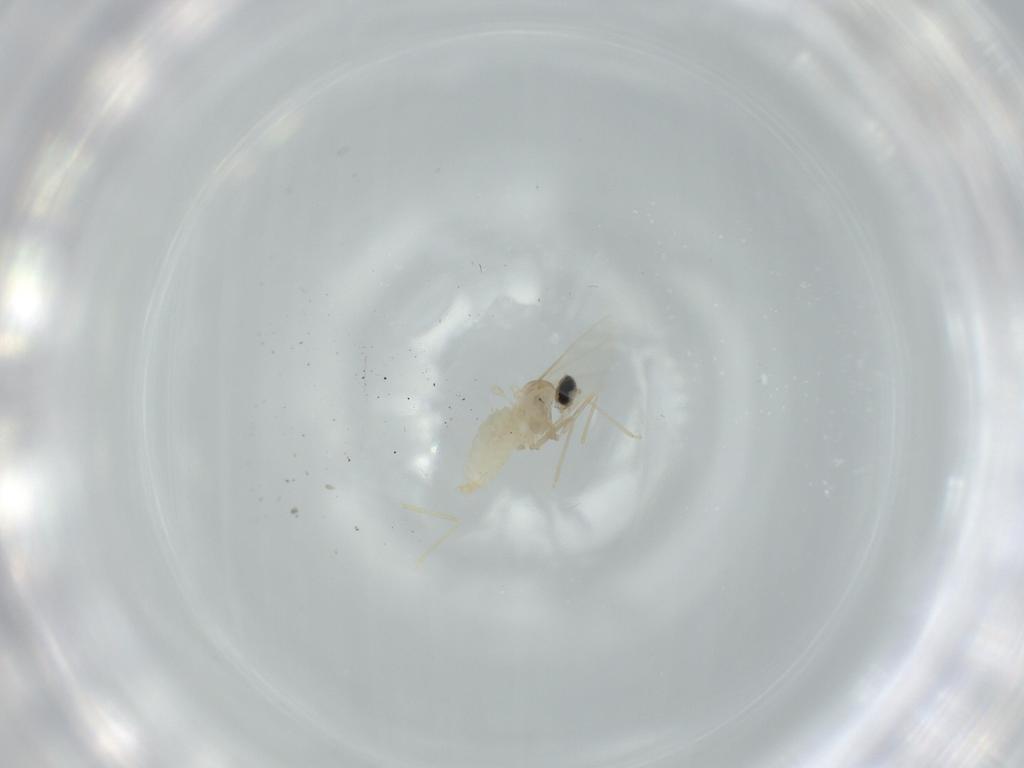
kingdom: Animalia
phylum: Arthropoda
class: Insecta
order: Diptera
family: Cecidomyiidae
